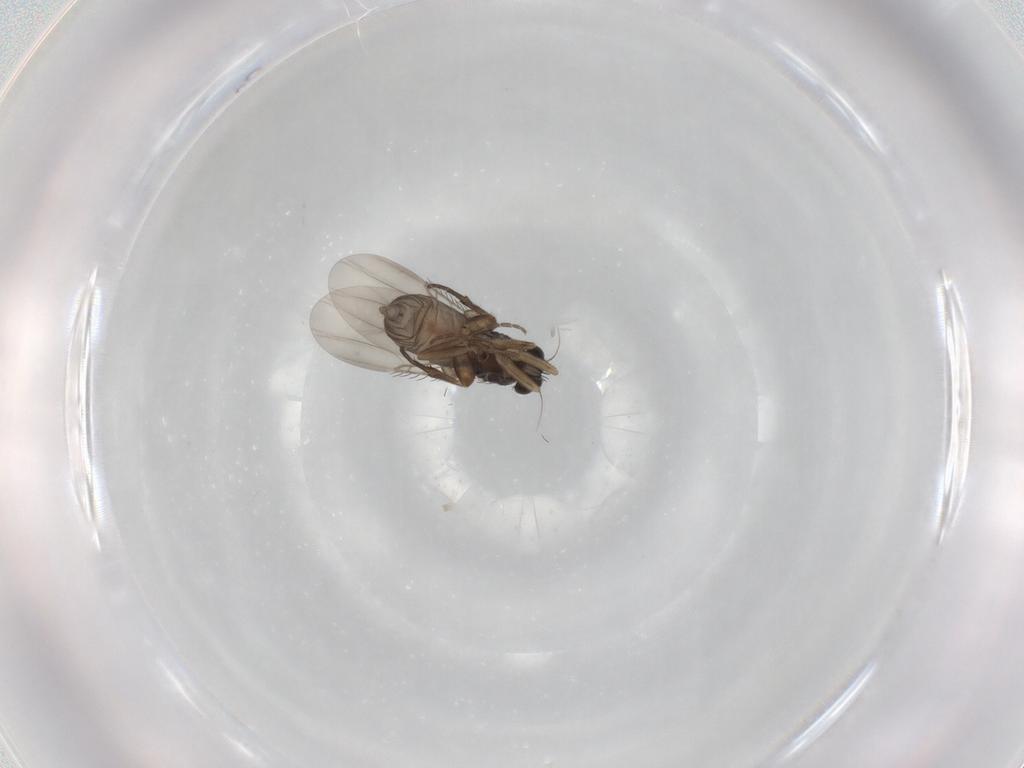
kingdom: Animalia
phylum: Arthropoda
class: Insecta
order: Diptera
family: Phoridae
